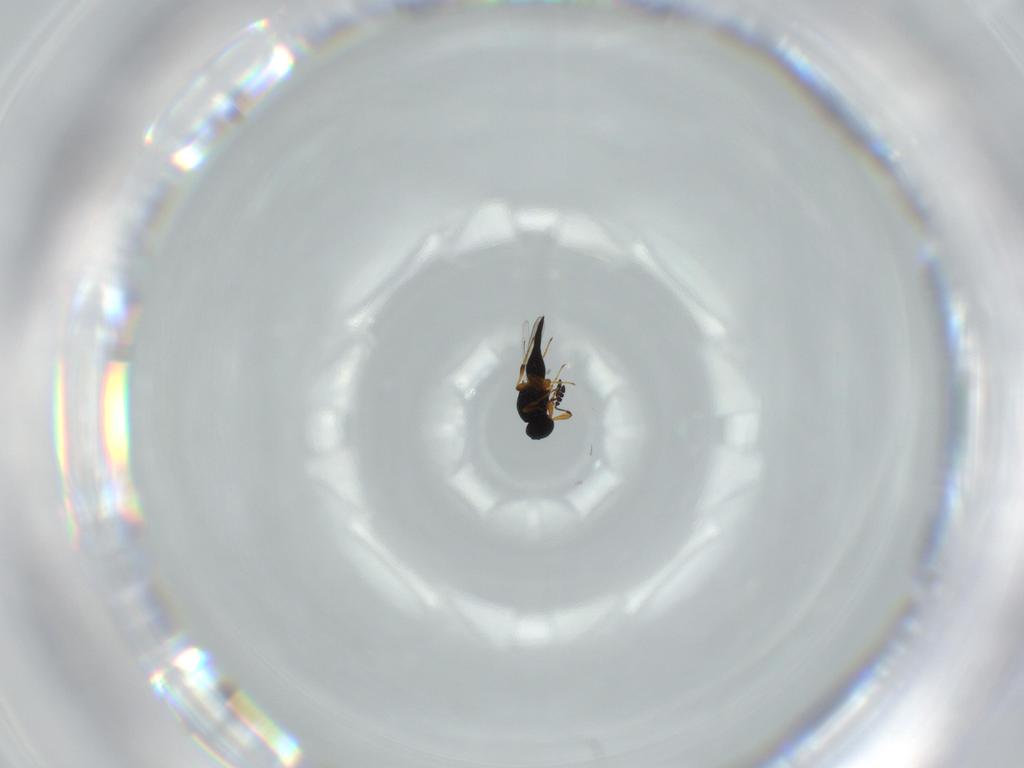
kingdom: Animalia
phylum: Arthropoda
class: Insecta
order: Hymenoptera
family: Platygastridae
